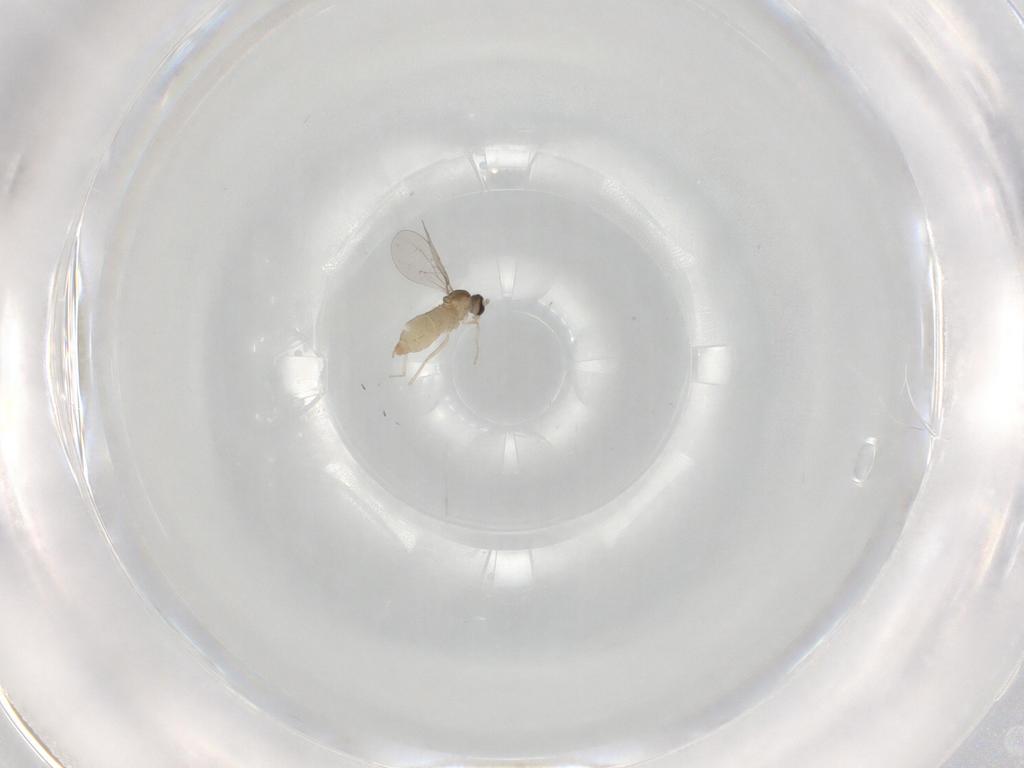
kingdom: Animalia
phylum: Arthropoda
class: Insecta
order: Diptera
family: Cecidomyiidae
